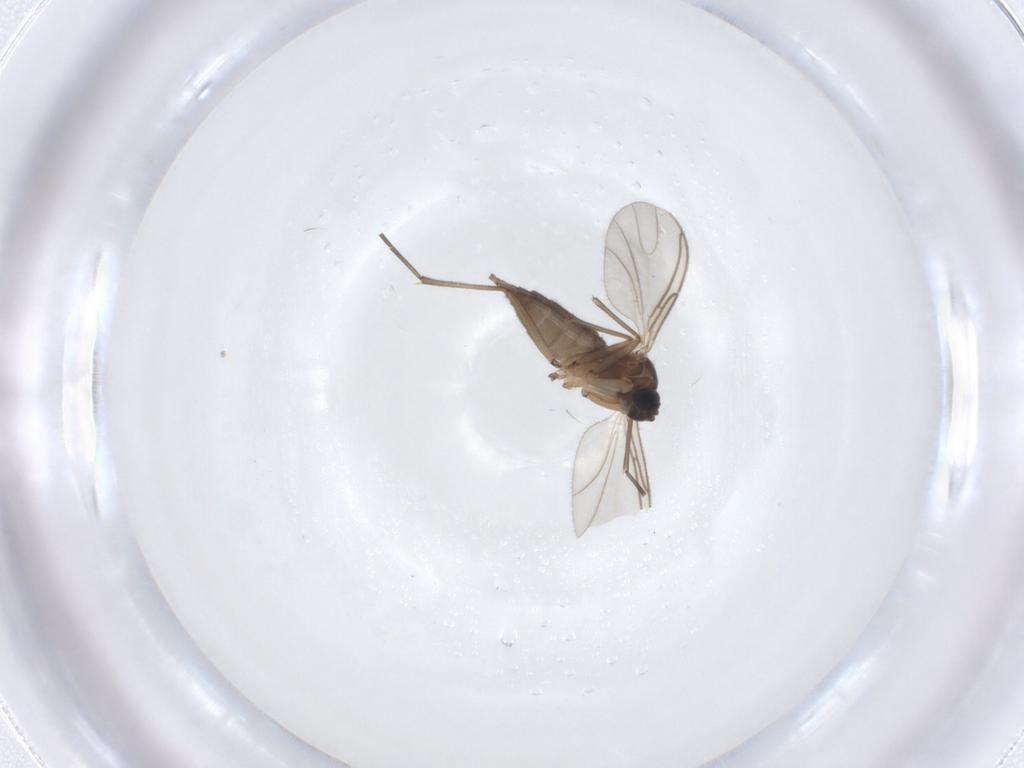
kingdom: Animalia
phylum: Arthropoda
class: Insecta
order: Diptera
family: Sciaridae
